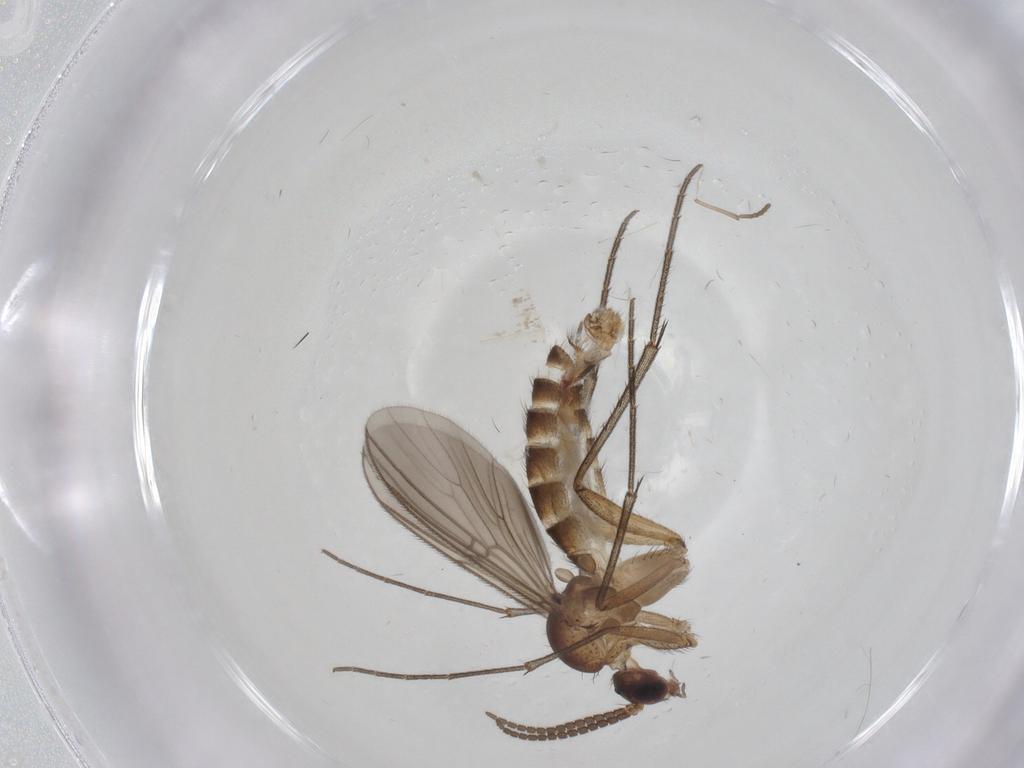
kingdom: Animalia
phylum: Arthropoda
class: Insecta
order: Diptera
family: Mycetophilidae
